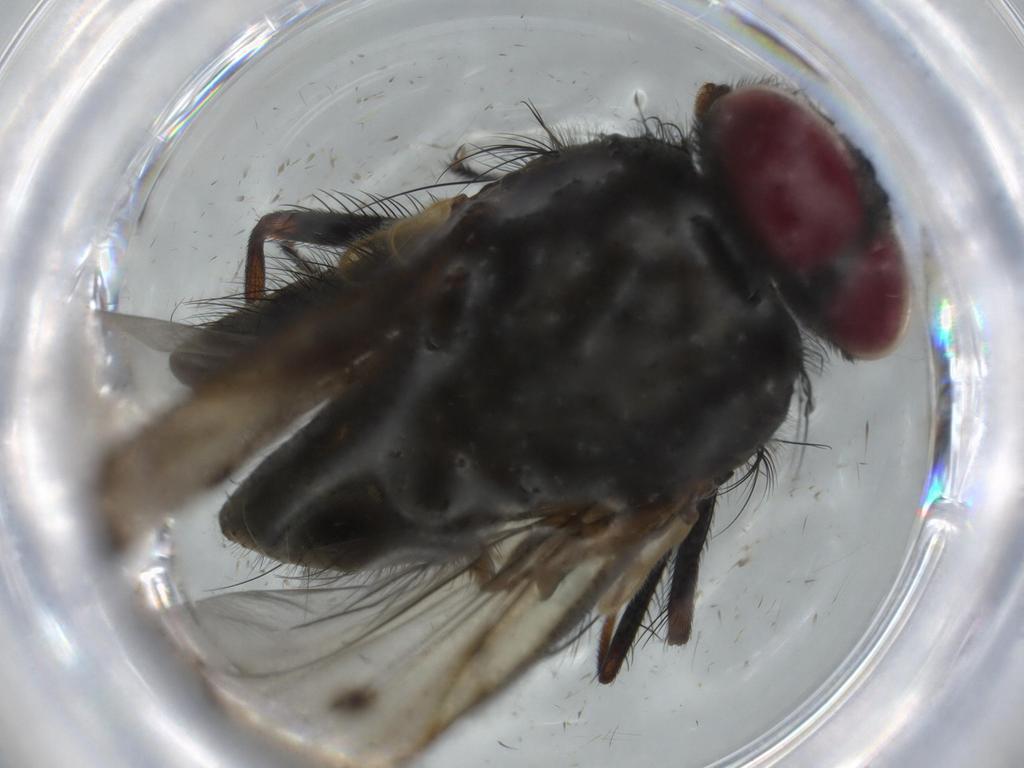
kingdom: Animalia
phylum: Arthropoda
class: Insecta
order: Diptera
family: Muscidae
